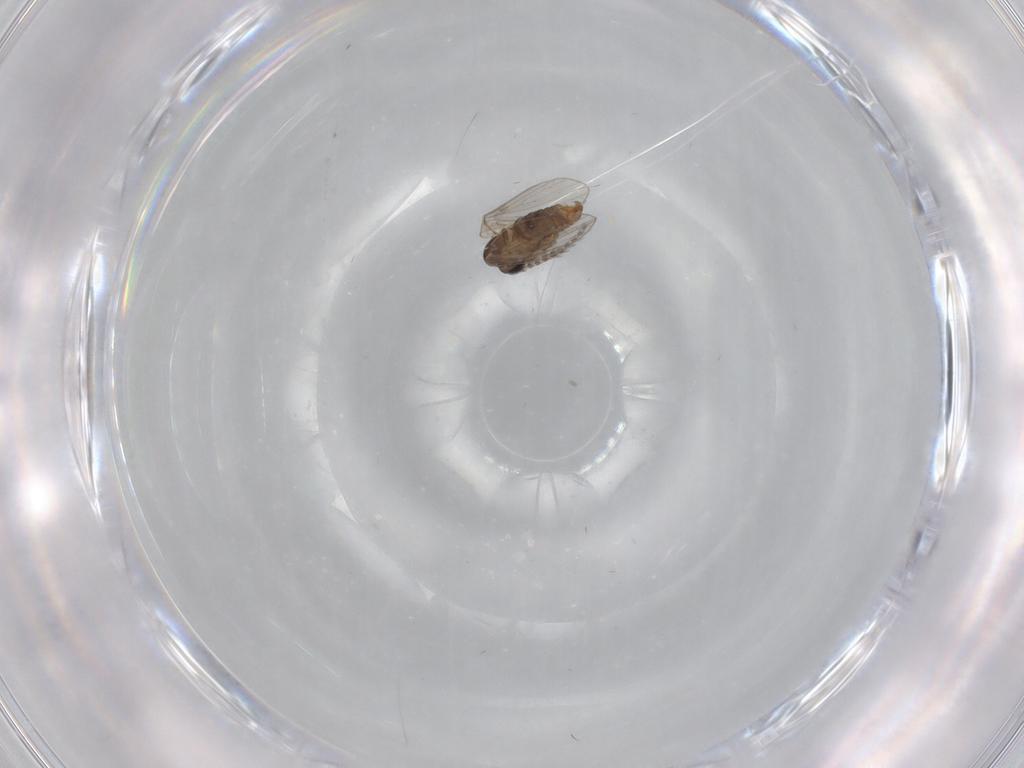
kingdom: Animalia
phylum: Arthropoda
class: Insecta
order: Diptera
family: Psychodidae
